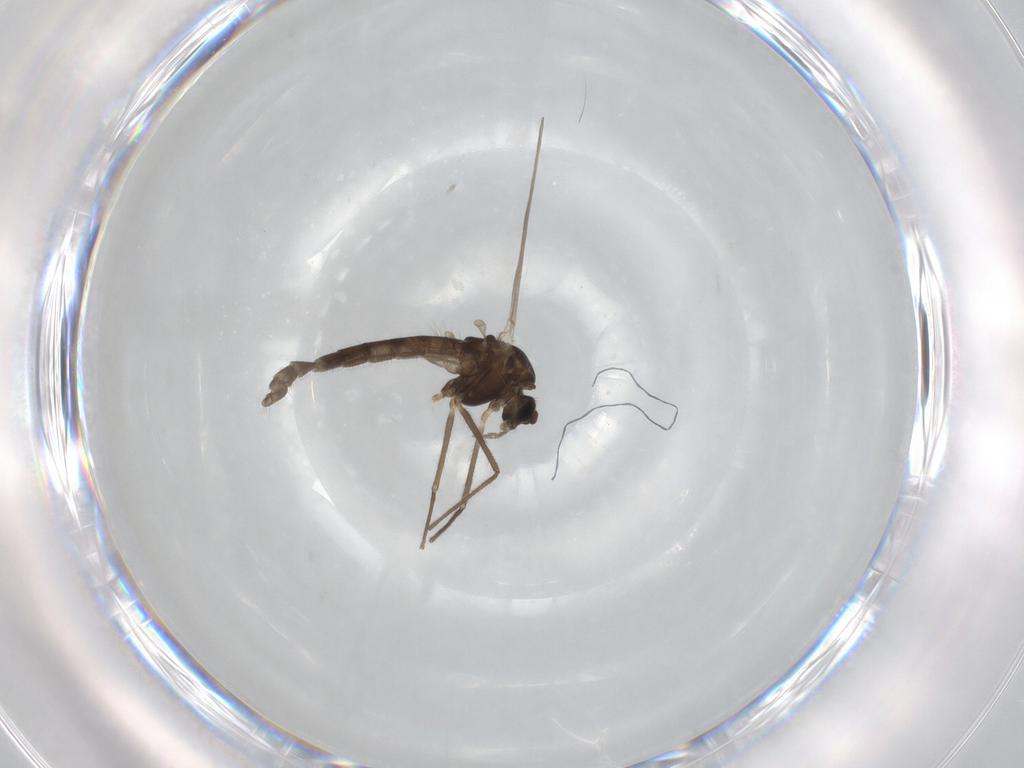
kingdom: Animalia
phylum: Arthropoda
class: Insecta
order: Diptera
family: Chironomidae
